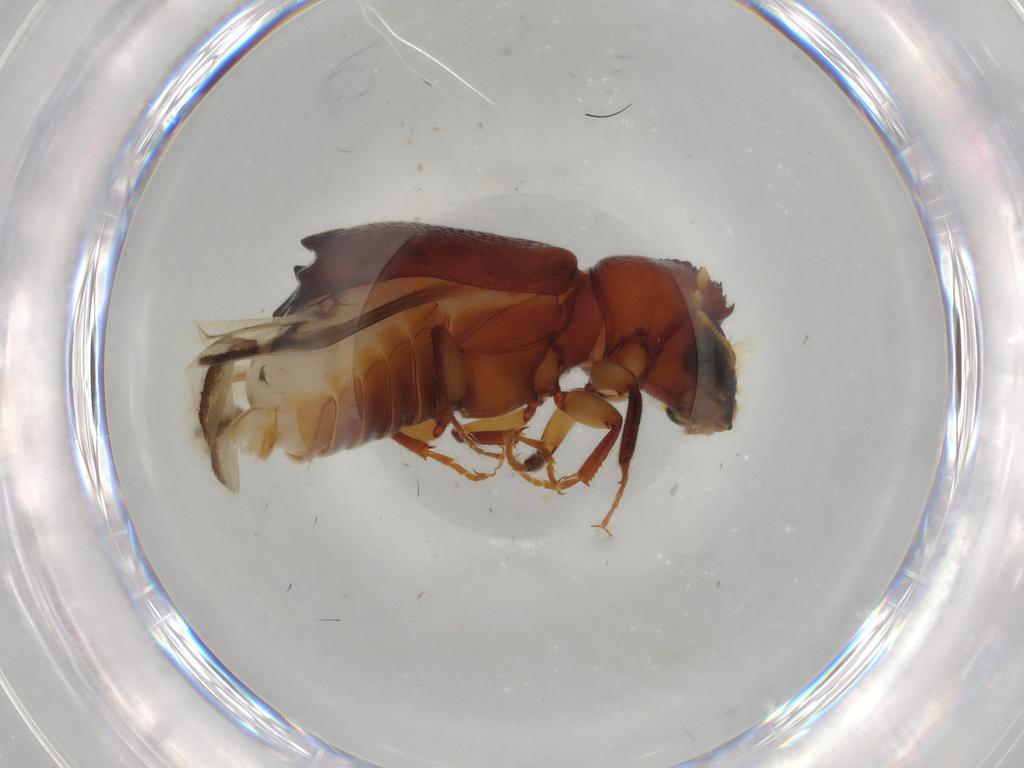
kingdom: Animalia
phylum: Arthropoda
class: Insecta
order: Coleoptera
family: Bostrichidae
